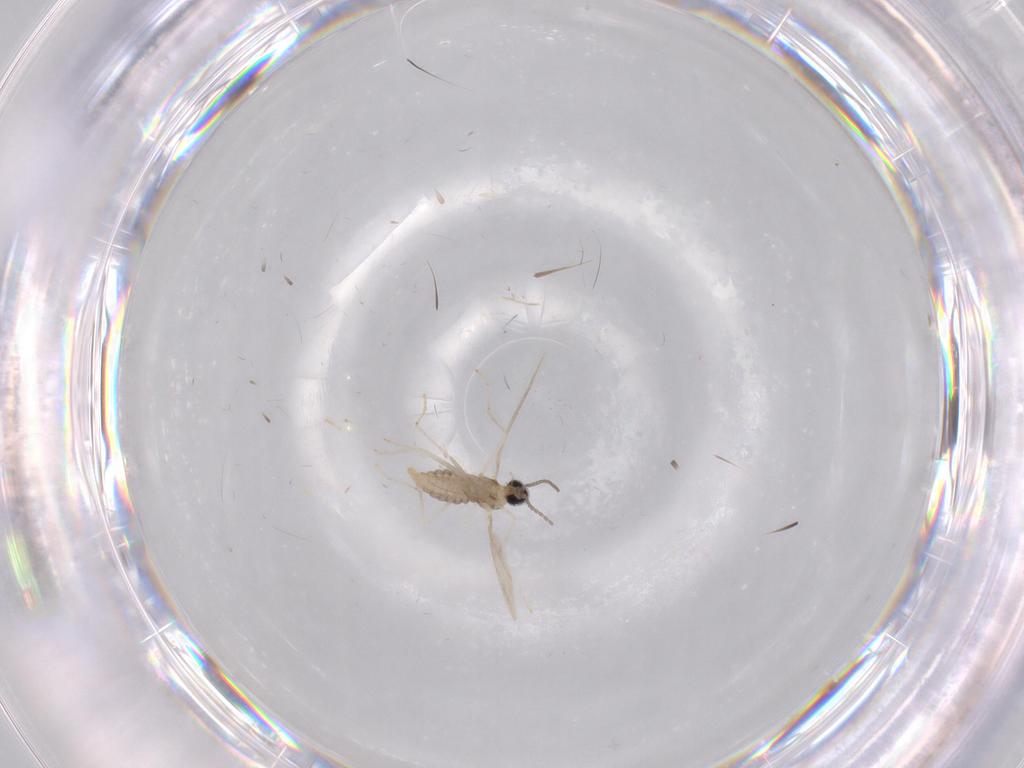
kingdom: Animalia
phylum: Arthropoda
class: Insecta
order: Diptera
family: Cecidomyiidae
